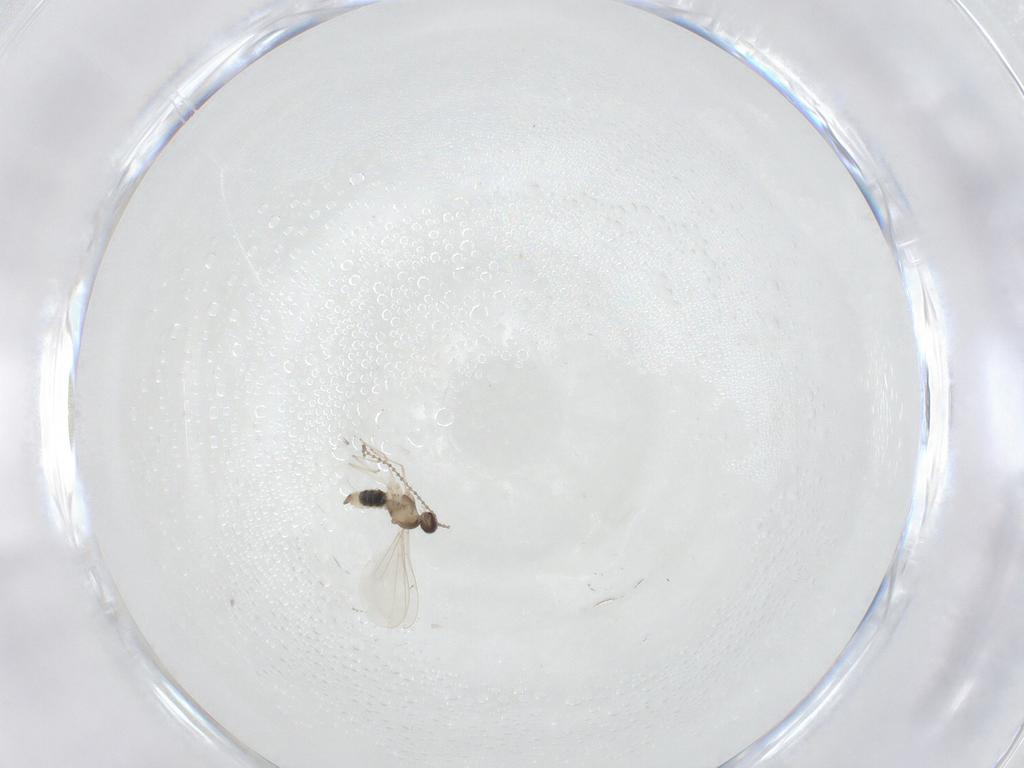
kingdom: Animalia
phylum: Arthropoda
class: Insecta
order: Diptera
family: Cecidomyiidae
